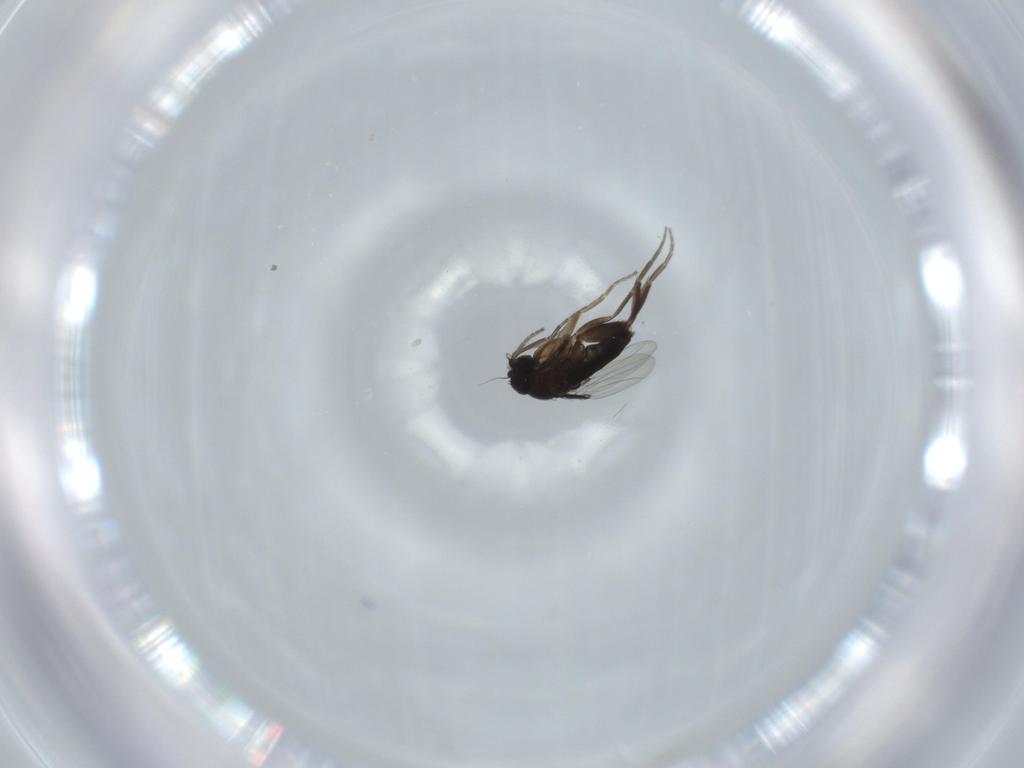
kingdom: Animalia
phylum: Arthropoda
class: Insecta
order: Diptera
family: Phoridae
